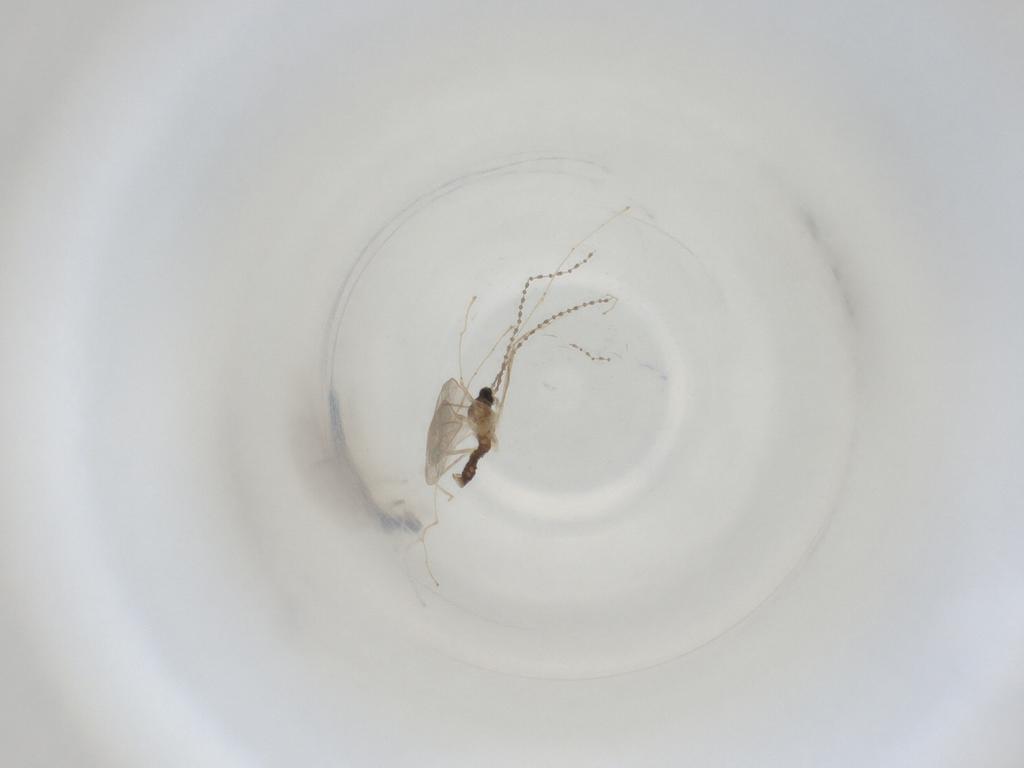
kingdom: Animalia
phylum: Arthropoda
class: Insecta
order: Diptera
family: Cecidomyiidae
